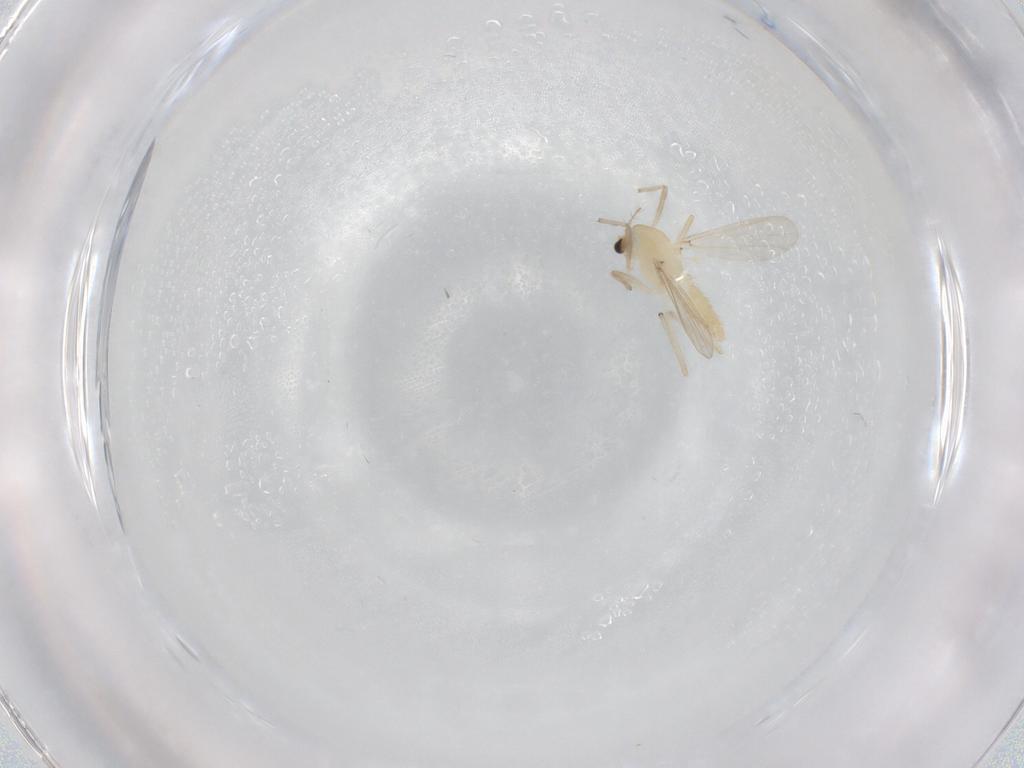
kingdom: Animalia
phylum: Arthropoda
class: Insecta
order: Diptera
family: Chironomidae
